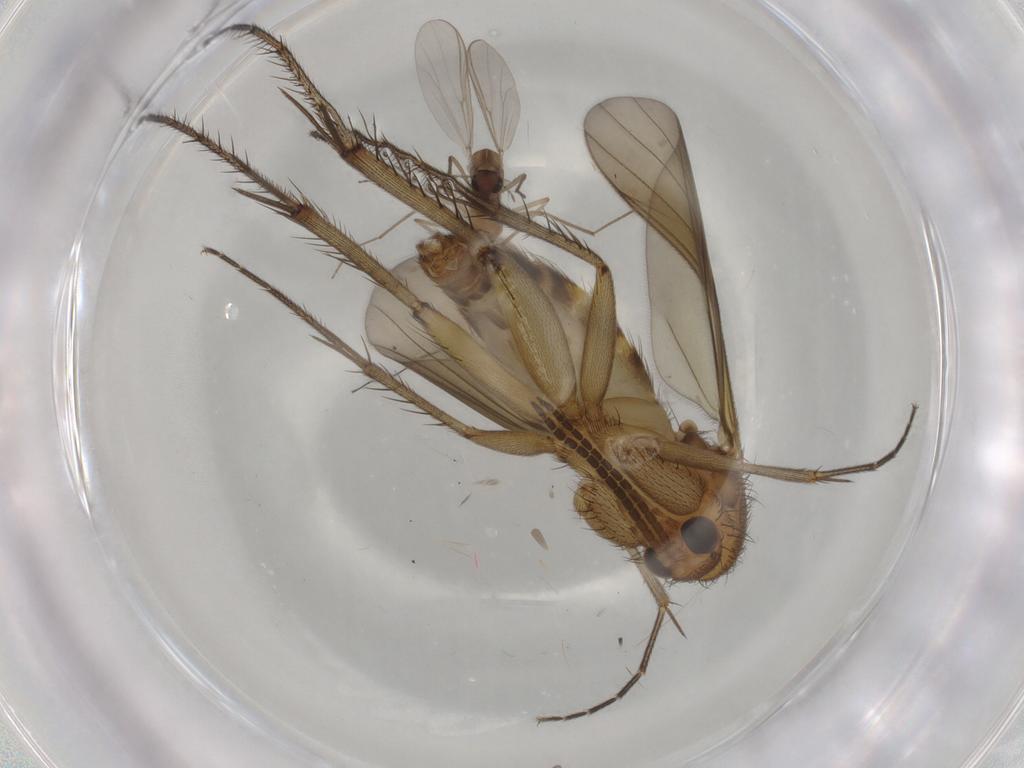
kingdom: Animalia
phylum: Arthropoda
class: Insecta
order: Diptera
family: Chironomidae
